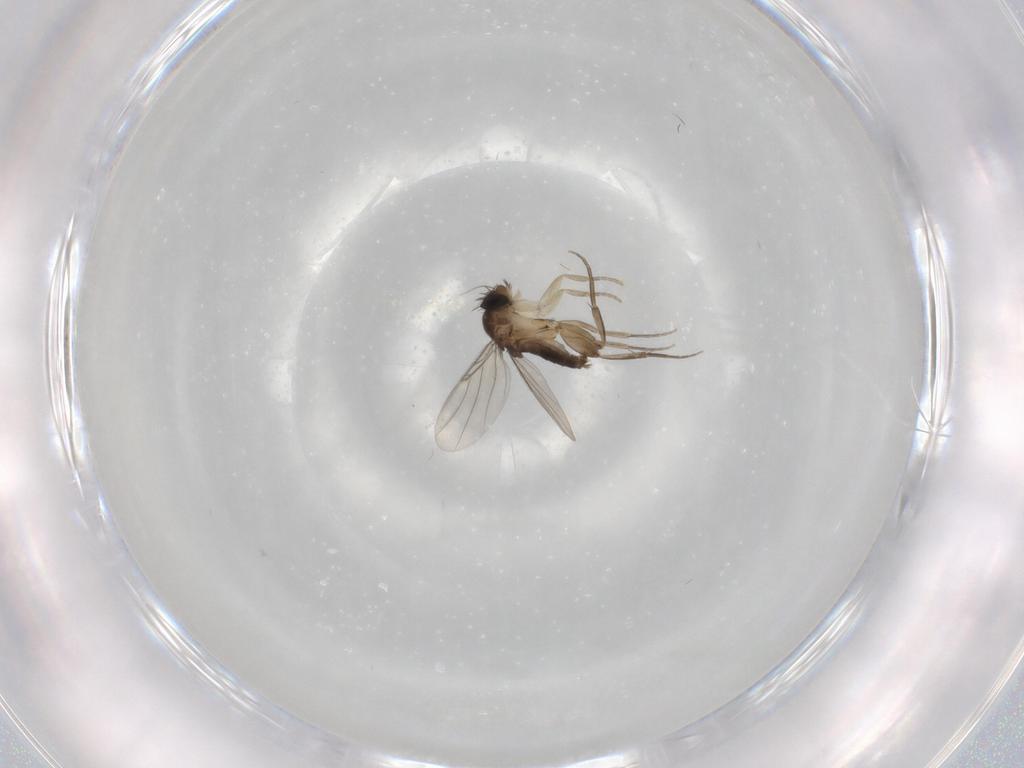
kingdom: Animalia
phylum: Arthropoda
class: Insecta
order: Diptera
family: Phoridae
